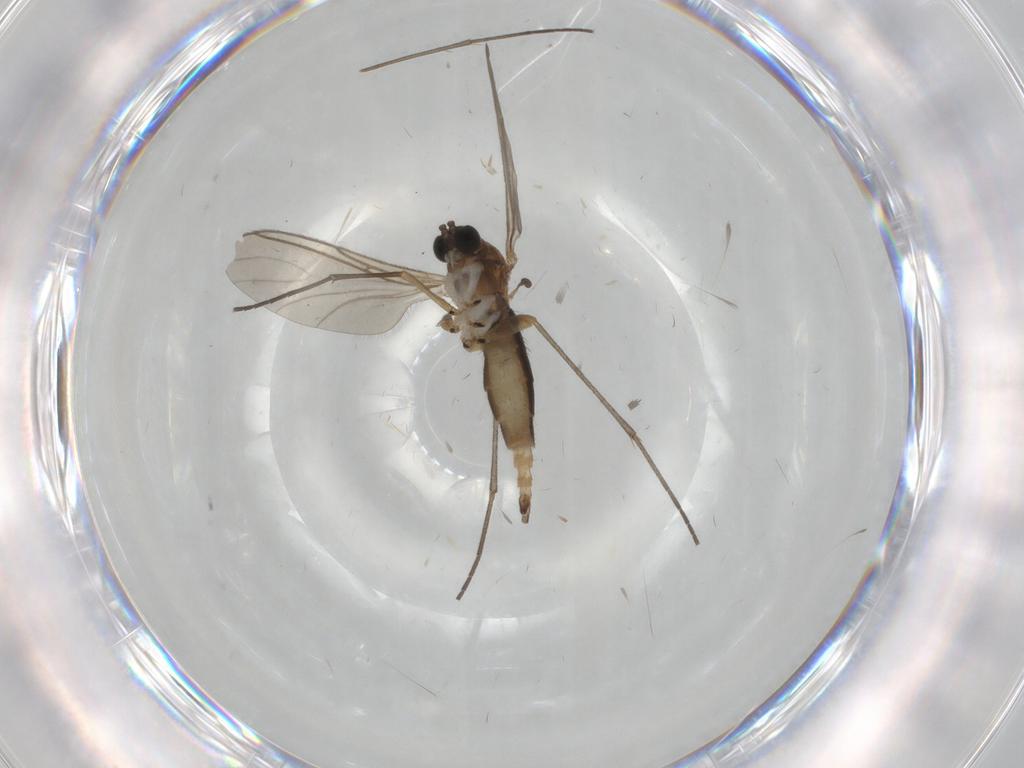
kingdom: Animalia
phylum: Arthropoda
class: Insecta
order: Diptera
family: Sciaridae
